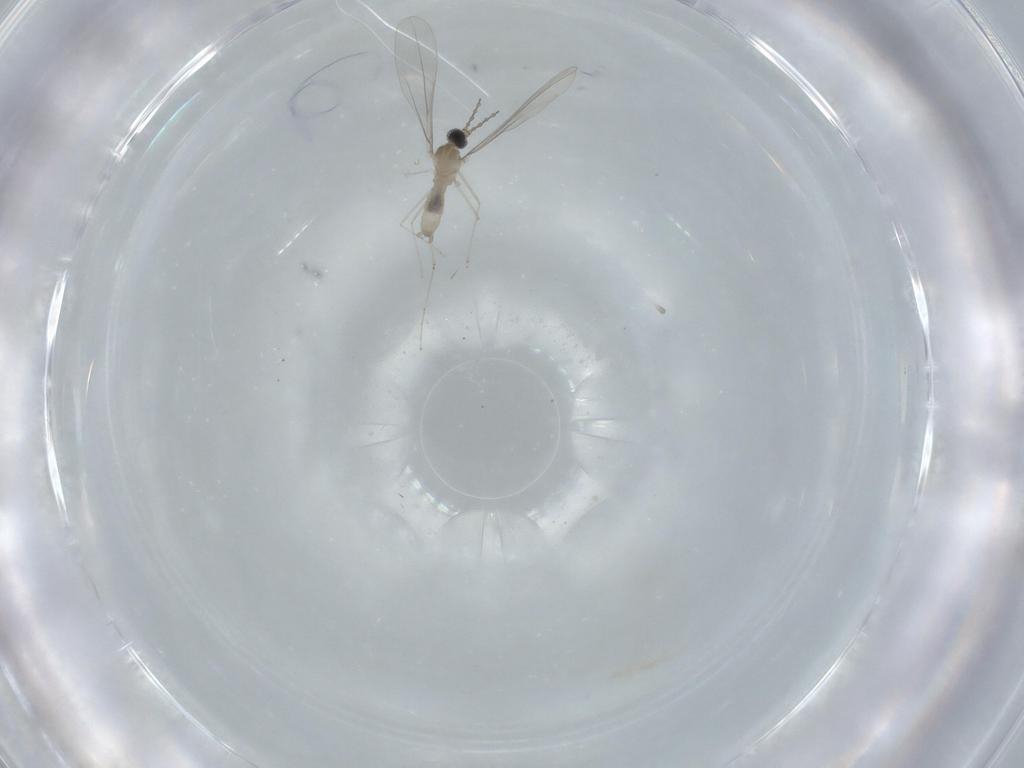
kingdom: Animalia
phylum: Arthropoda
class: Insecta
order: Diptera
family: Cecidomyiidae
